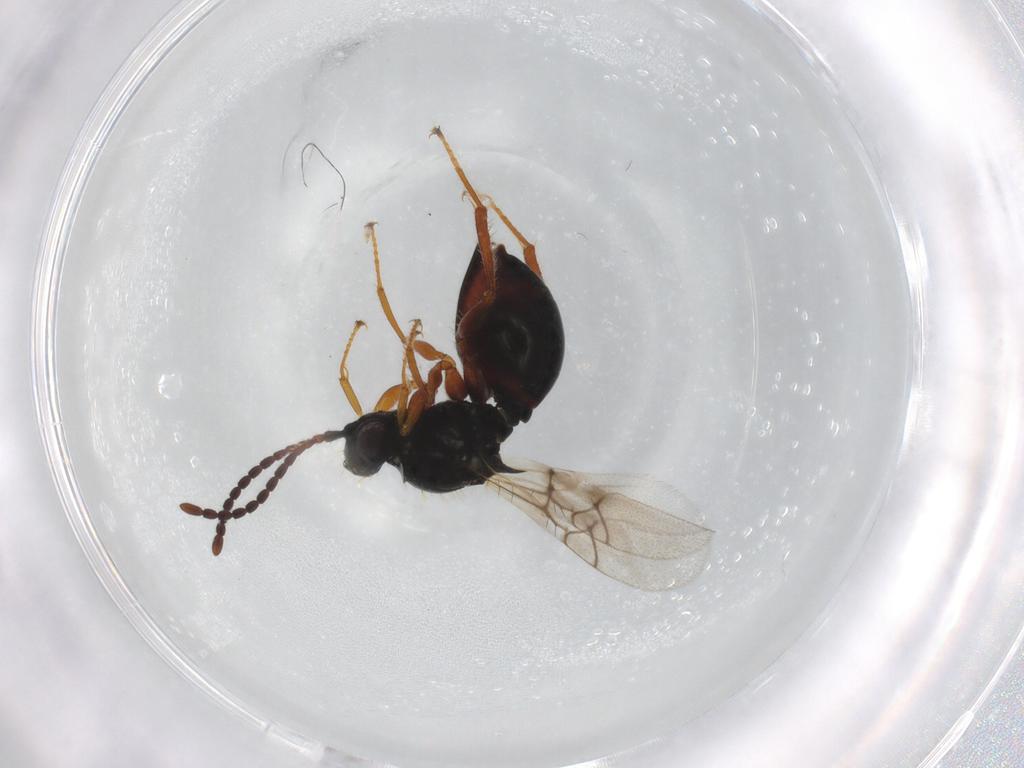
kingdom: Animalia
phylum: Arthropoda
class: Insecta
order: Hymenoptera
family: Figitidae
